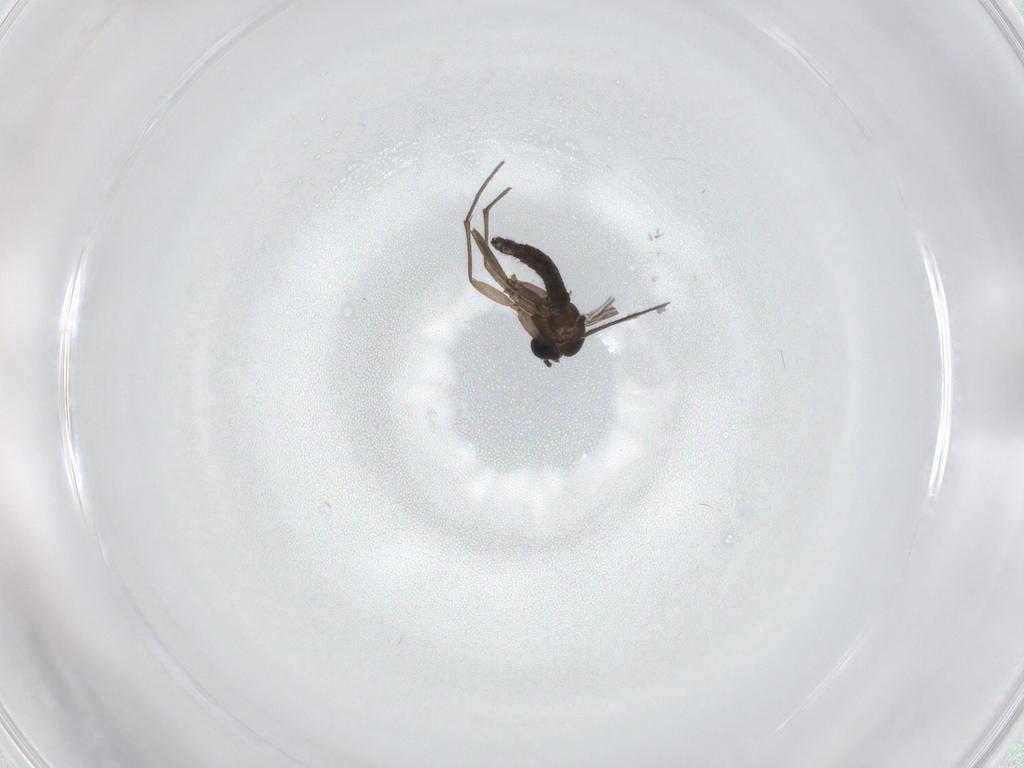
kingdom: Animalia
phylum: Arthropoda
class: Insecta
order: Diptera
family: Sciaridae
